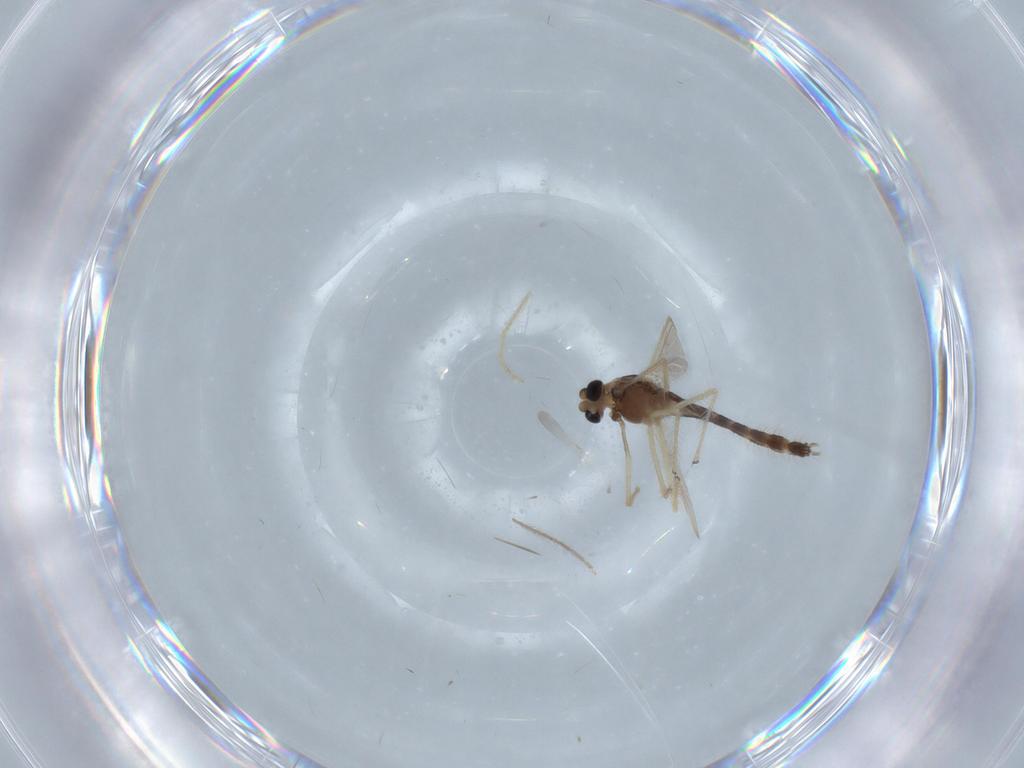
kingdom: Animalia
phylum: Arthropoda
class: Insecta
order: Diptera
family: Chironomidae
